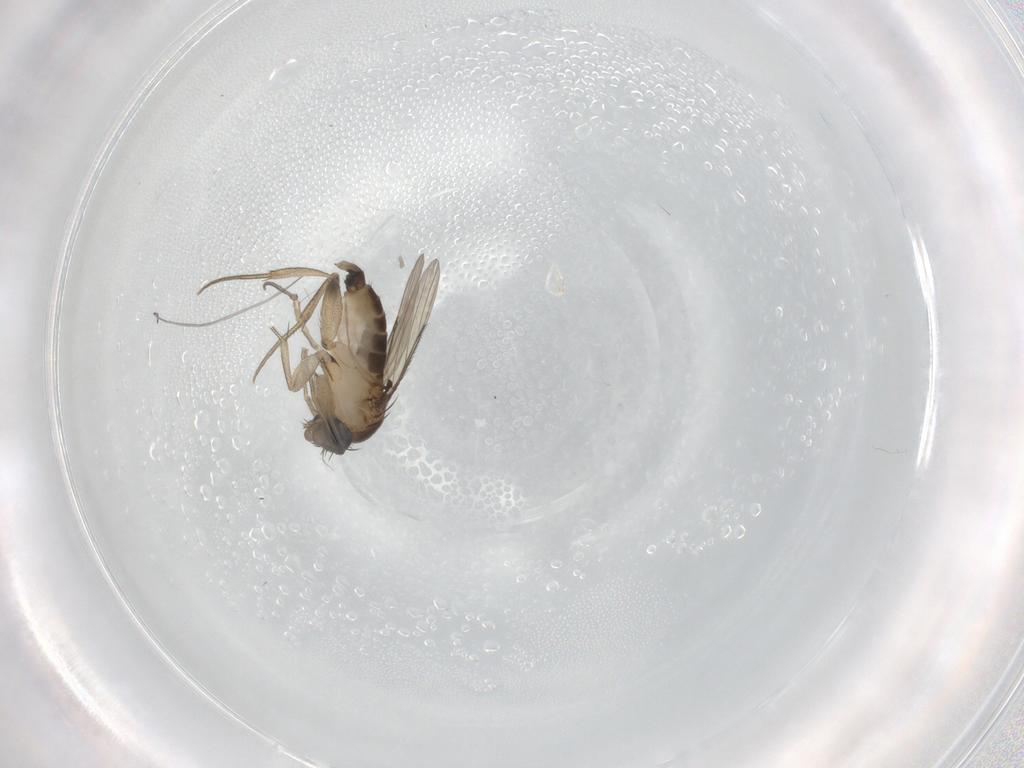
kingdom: Animalia
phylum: Arthropoda
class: Insecta
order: Diptera
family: Phoridae
